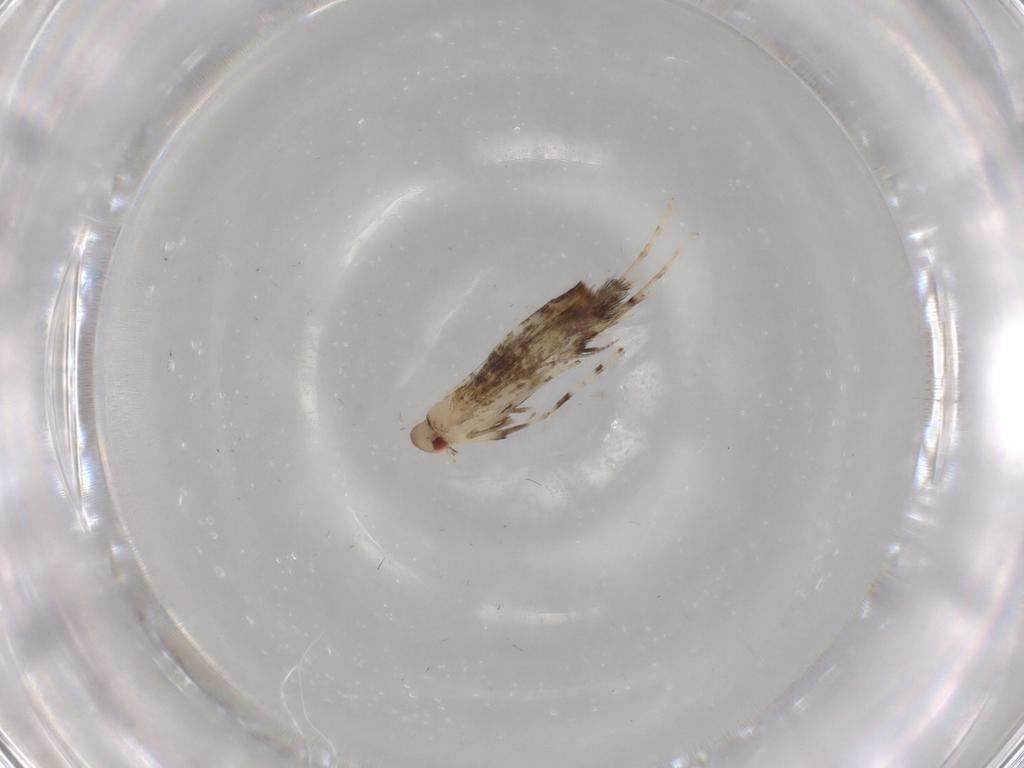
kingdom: Animalia
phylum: Arthropoda
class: Insecta
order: Lepidoptera
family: Gracillariidae
